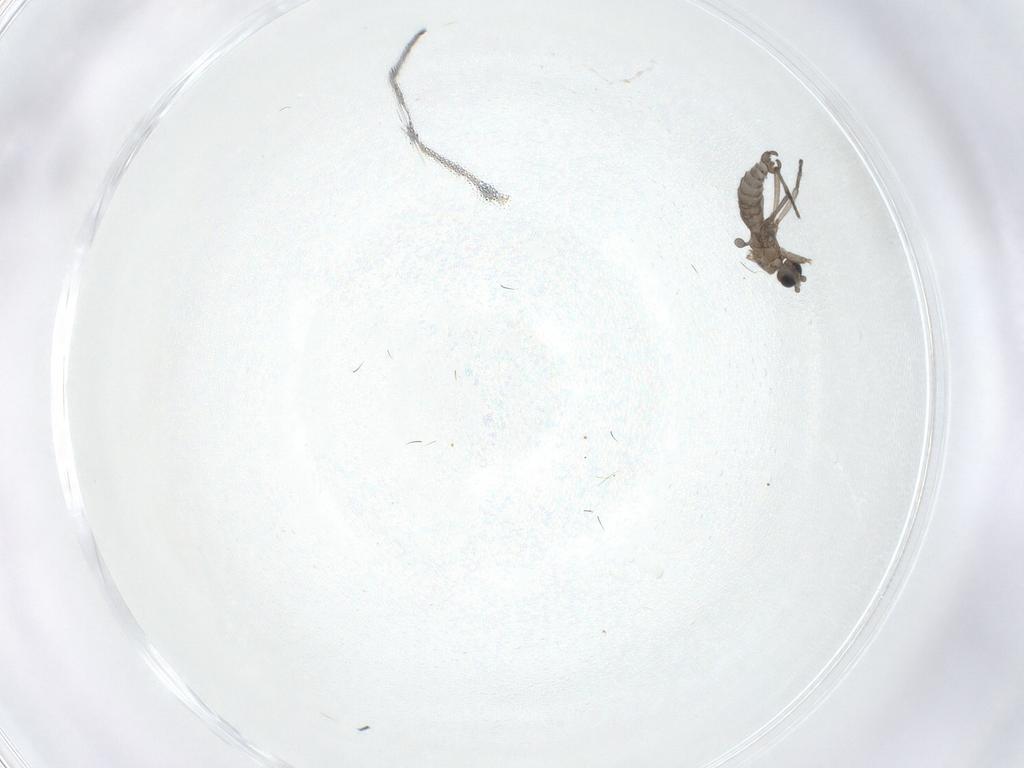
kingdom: Animalia
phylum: Arthropoda
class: Insecta
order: Diptera
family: Sciaridae
